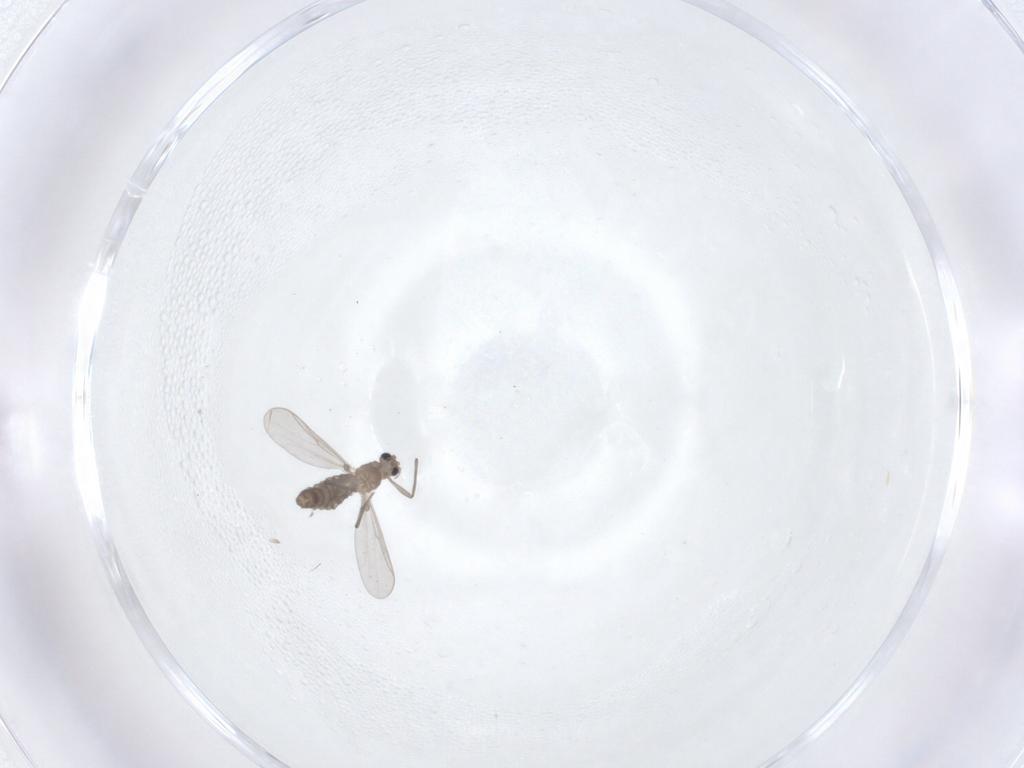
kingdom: Animalia
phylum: Arthropoda
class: Insecta
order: Diptera
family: Chironomidae
